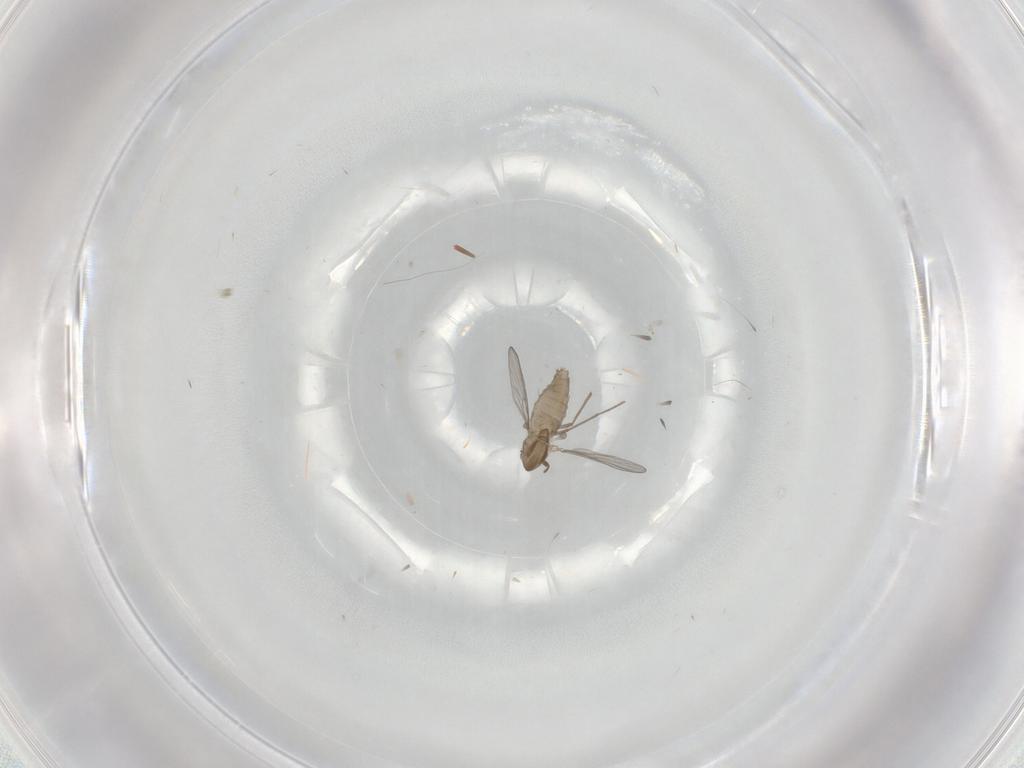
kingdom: Animalia
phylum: Arthropoda
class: Insecta
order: Diptera
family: Chironomidae
